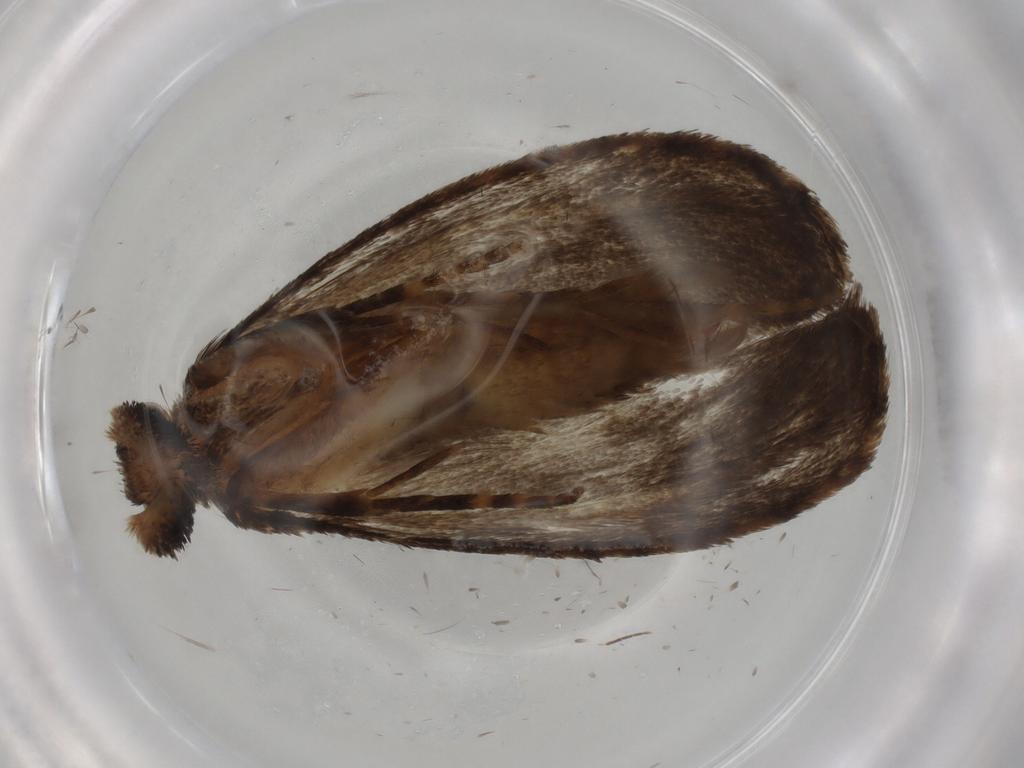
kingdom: Animalia
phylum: Arthropoda
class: Insecta
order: Lepidoptera
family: Tineidae
